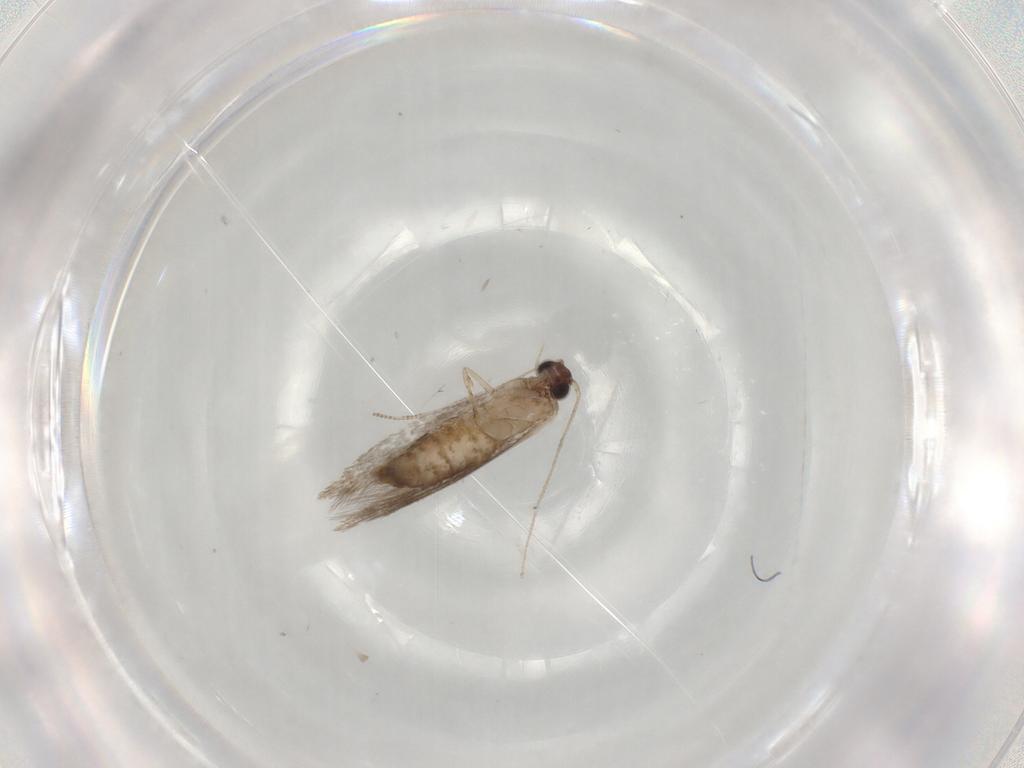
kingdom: Animalia
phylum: Arthropoda
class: Insecta
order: Lepidoptera
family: Tineidae
